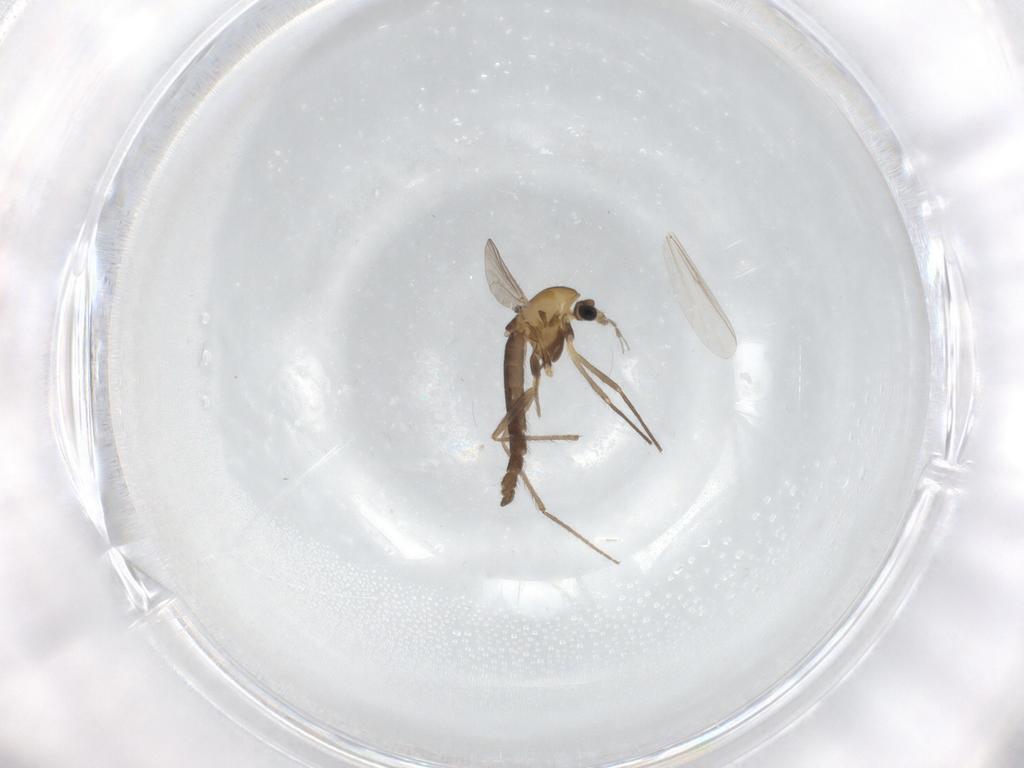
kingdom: Animalia
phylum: Arthropoda
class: Insecta
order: Diptera
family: Chironomidae
